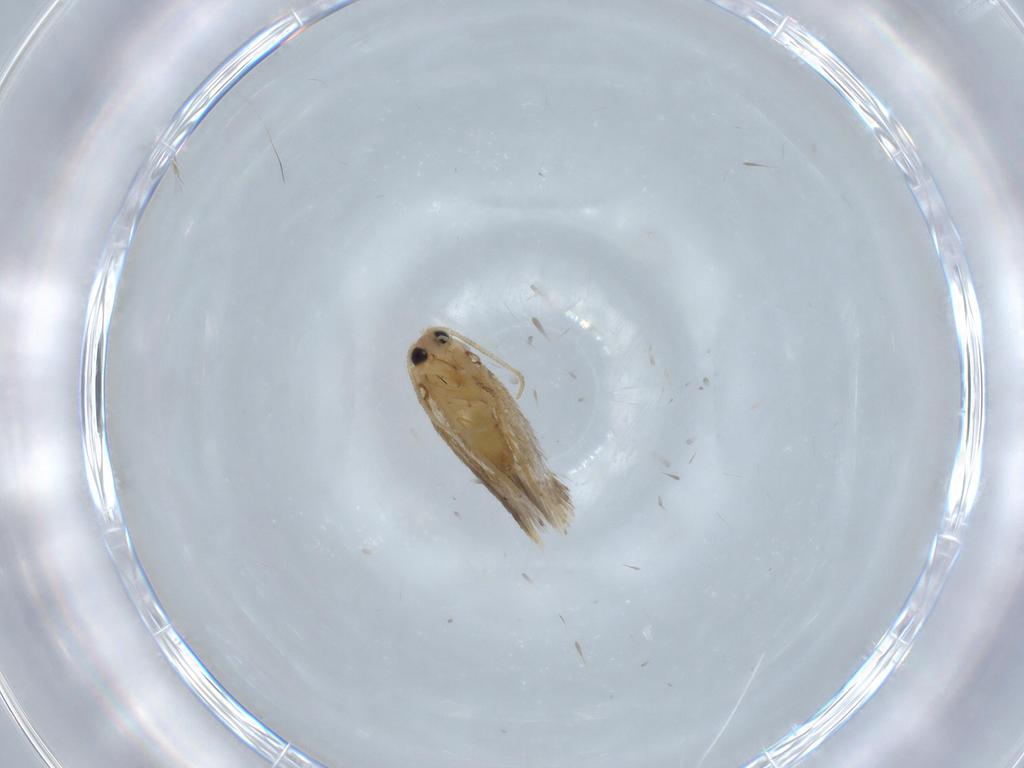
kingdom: Animalia
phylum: Arthropoda
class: Insecta
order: Lepidoptera
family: Nepticulidae
